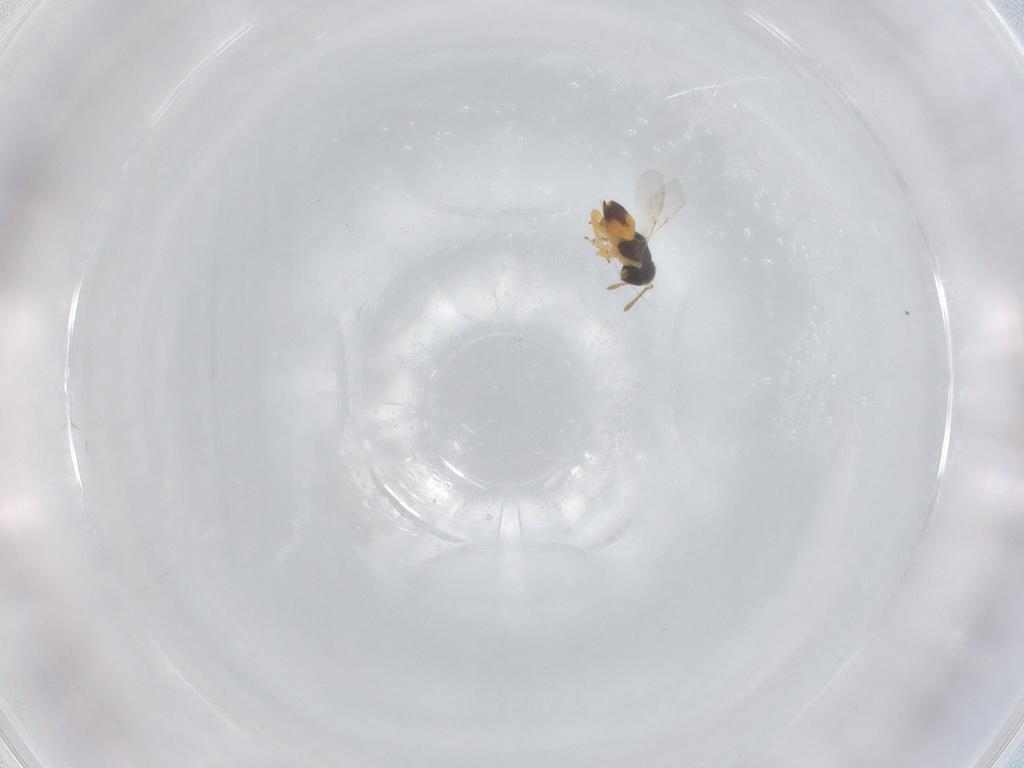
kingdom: Animalia
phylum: Arthropoda
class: Insecta
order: Hymenoptera
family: Encyrtidae
